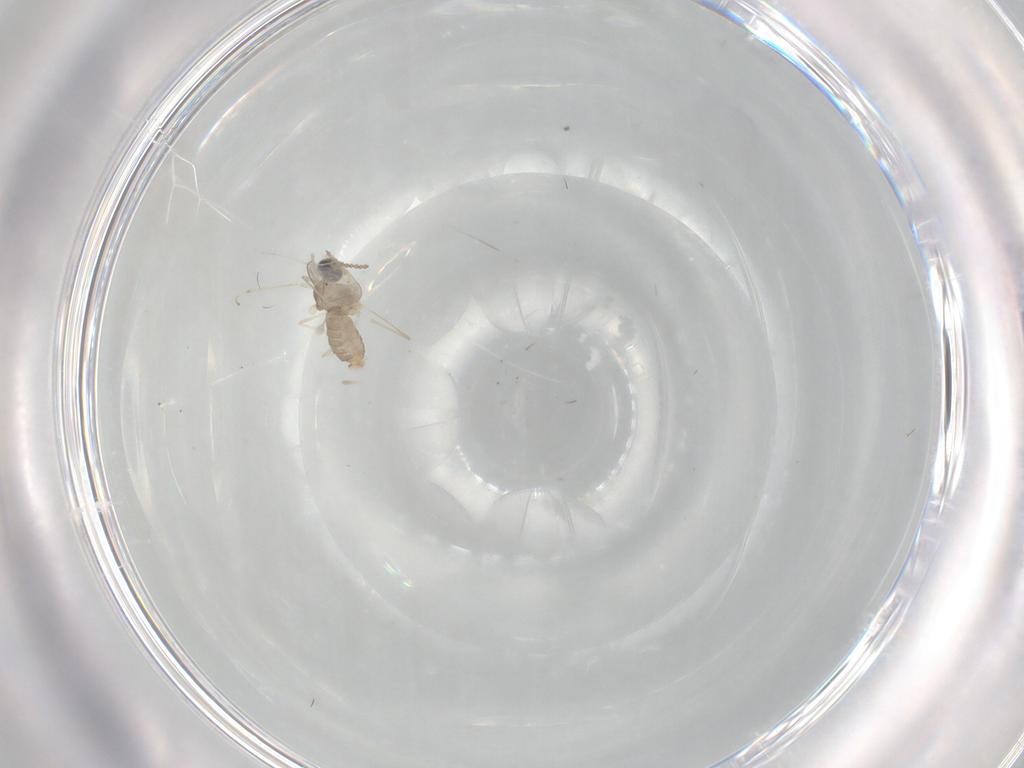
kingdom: Animalia
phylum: Arthropoda
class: Insecta
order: Diptera
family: Cecidomyiidae
